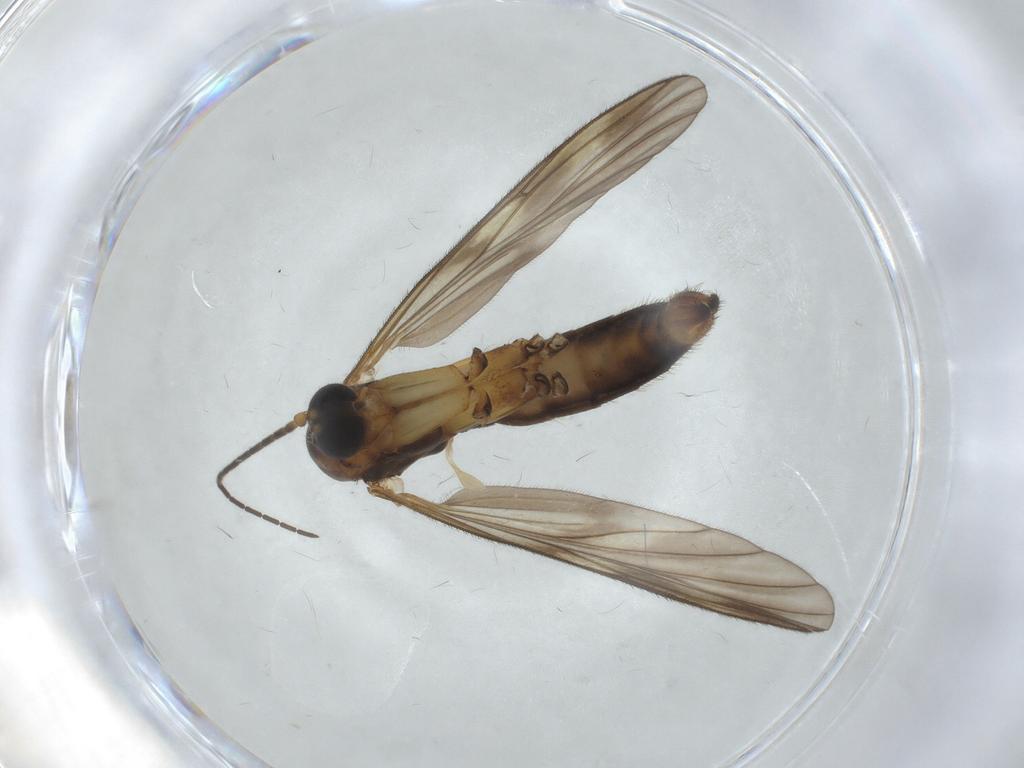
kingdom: Animalia
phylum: Arthropoda
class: Insecta
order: Diptera
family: Mycetophilidae
